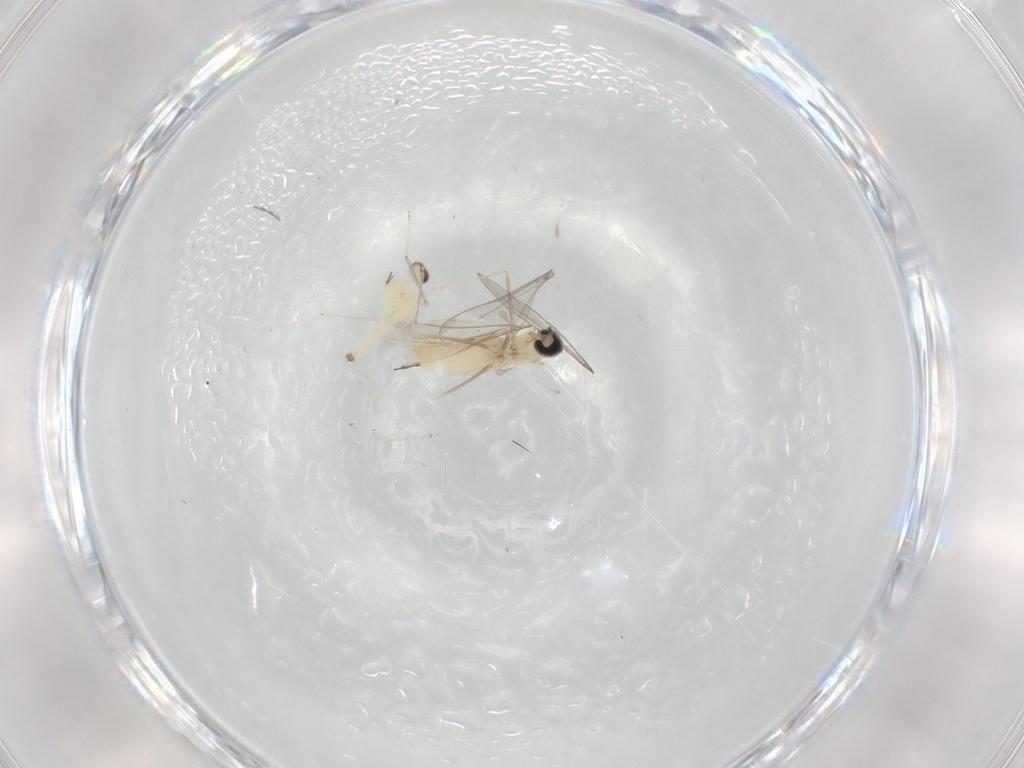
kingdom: Animalia
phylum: Arthropoda
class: Insecta
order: Diptera
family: Cecidomyiidae
